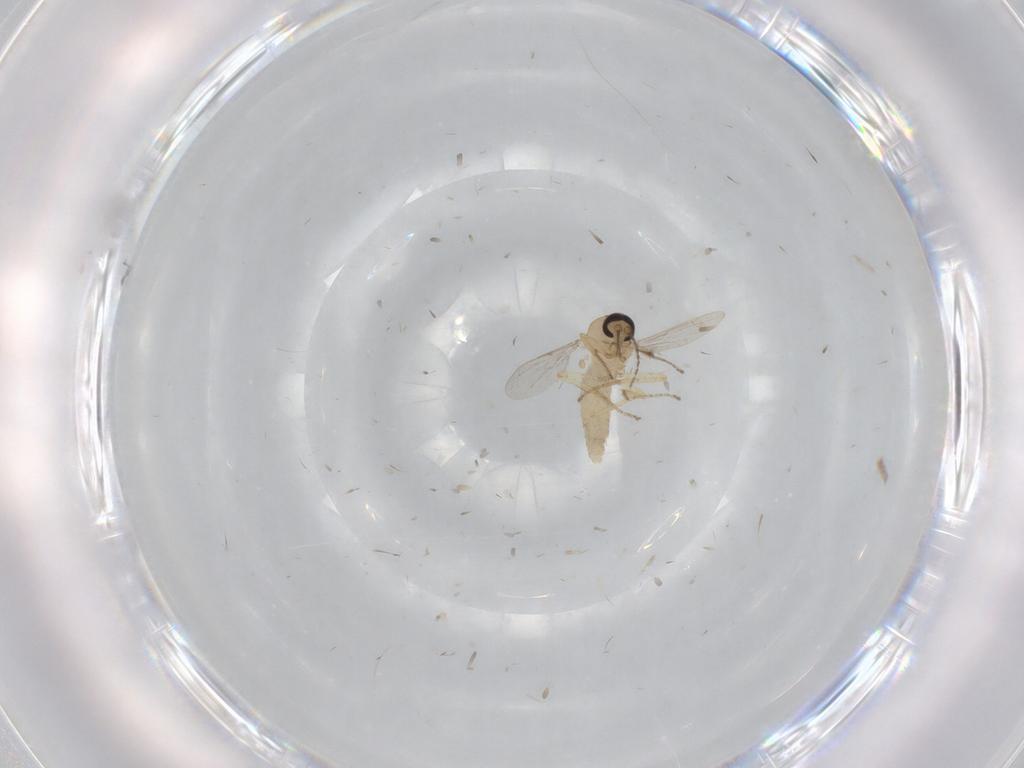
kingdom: Animalia
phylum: Arthropoda
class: Insecta
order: Diptera
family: Ceratopogonidae
